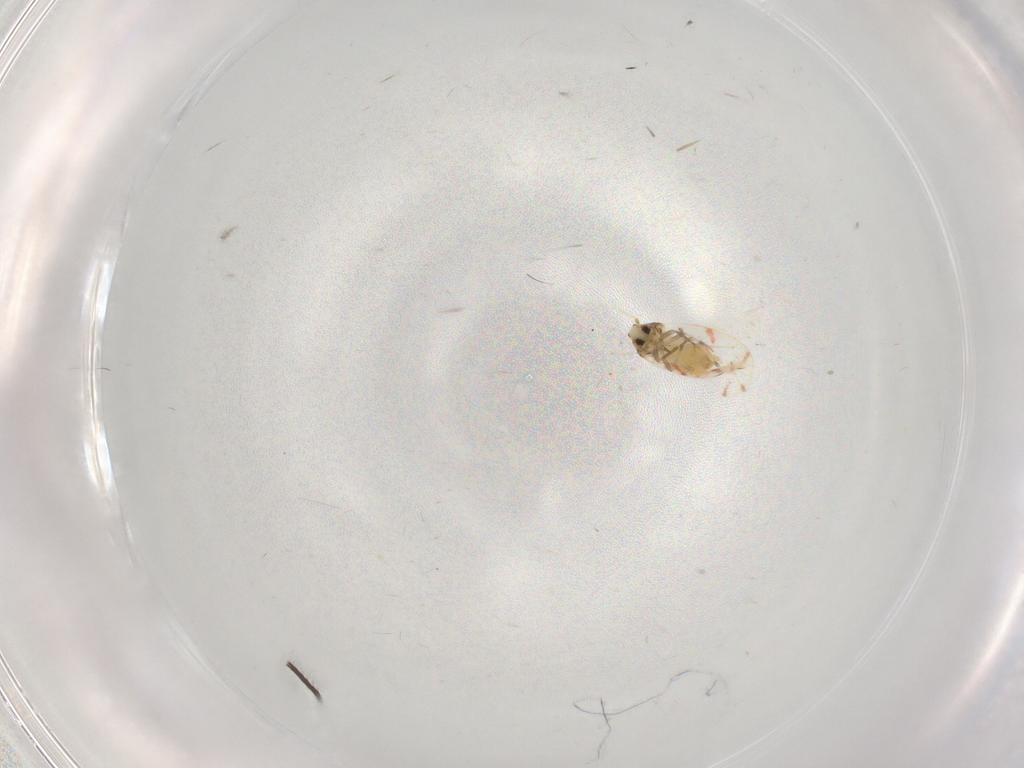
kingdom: Animalia
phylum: Arthropoda
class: Insecta
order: Hemiptera
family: Aleyrodidae
